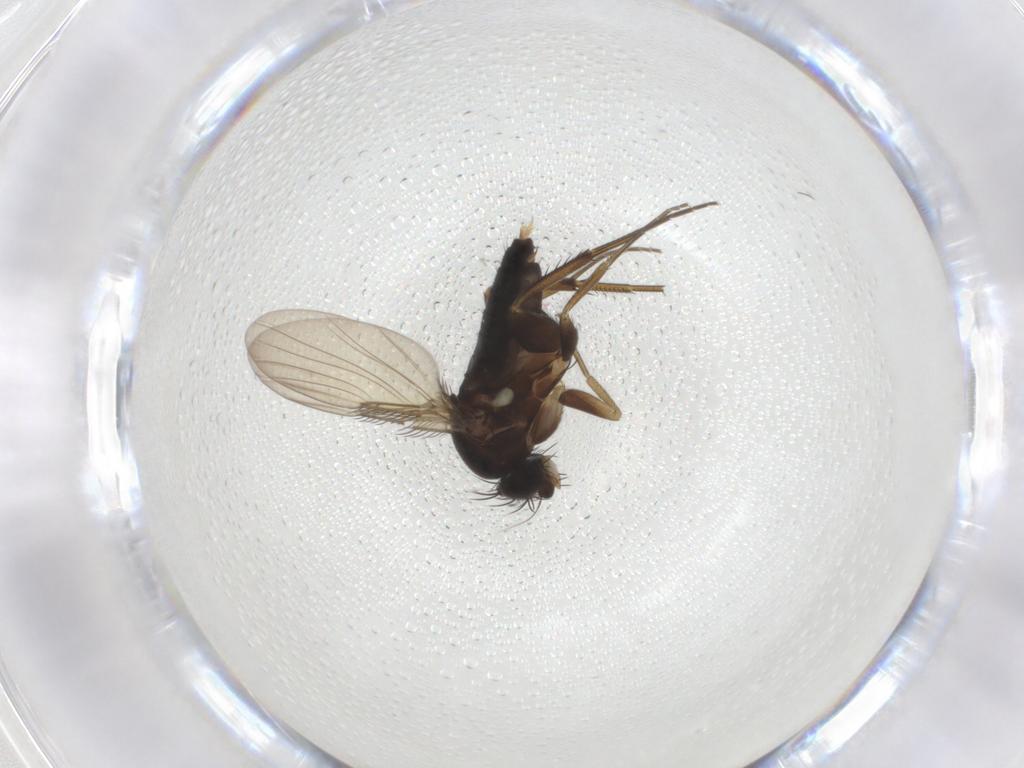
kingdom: Animalia
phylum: Arthropoda
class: Insecta
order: Diptera
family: Phoridae
